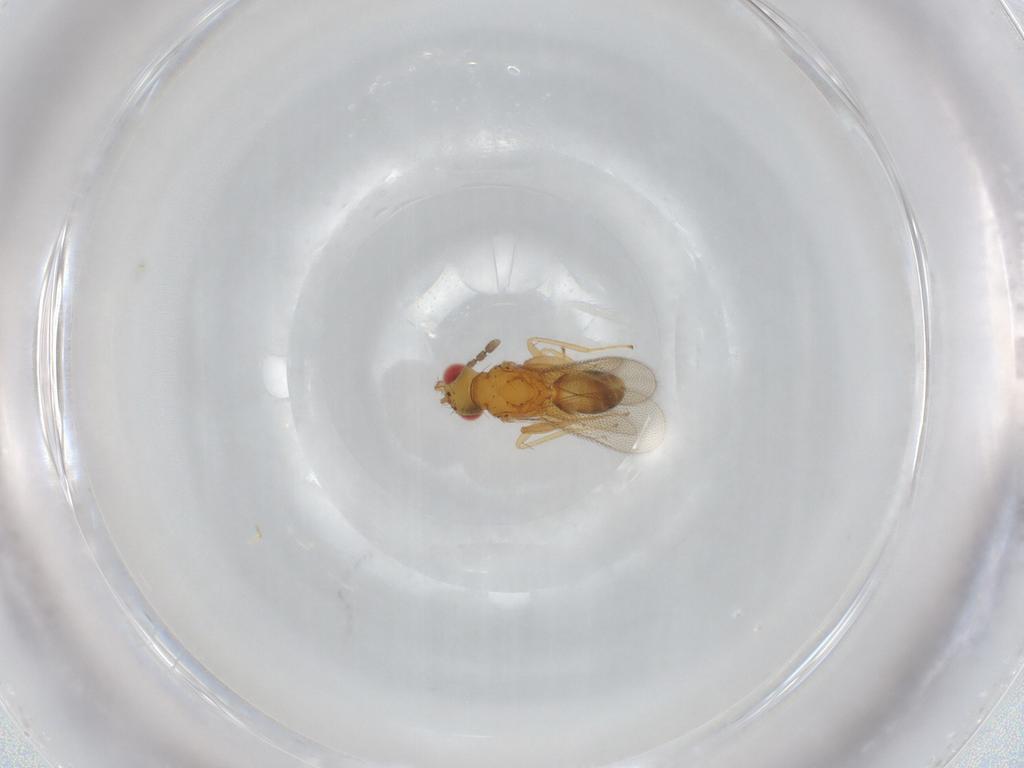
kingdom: Animalia
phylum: Arthropoda
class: Insecta
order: Hymenoptera
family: Eulophidae
